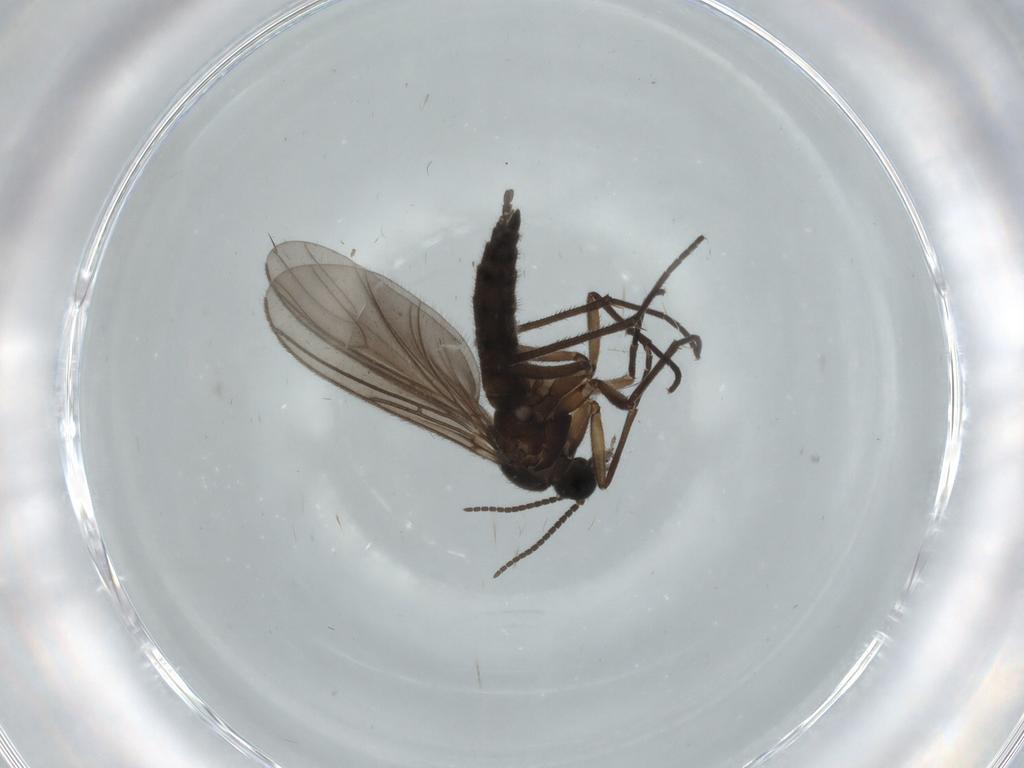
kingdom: Animalia
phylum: Arthropoda
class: Insecta
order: Diptera
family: Sciaridae
